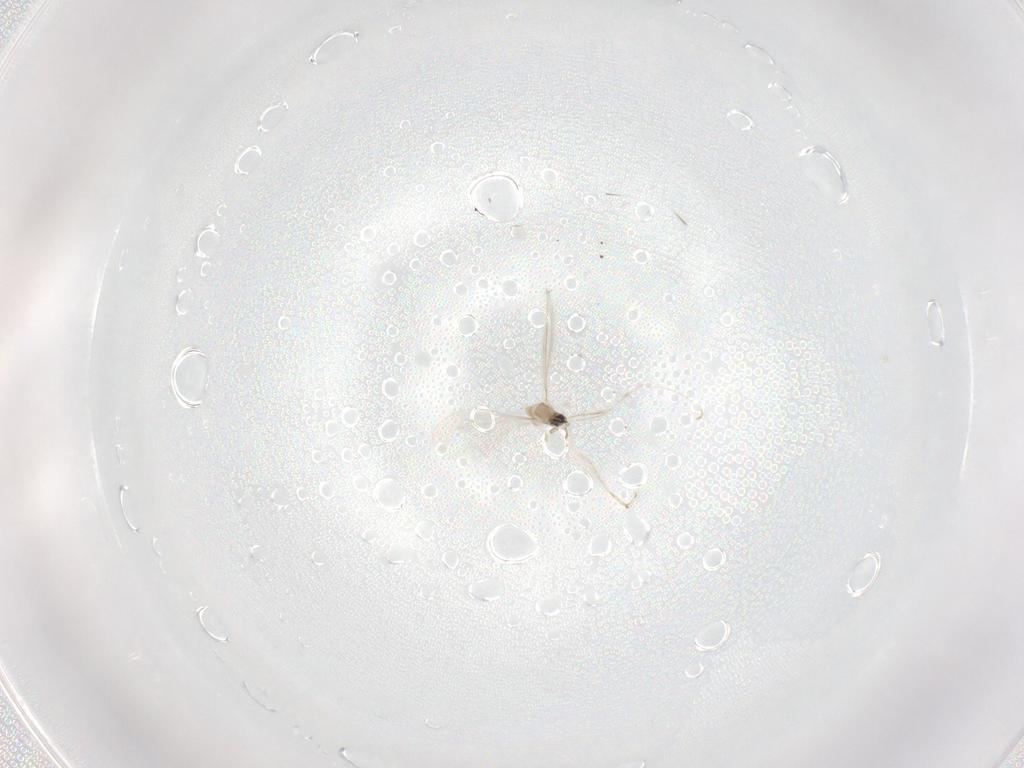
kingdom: Animalia
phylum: Arthropoda
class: Insecta
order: Diptera
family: Cecidomyiidae
